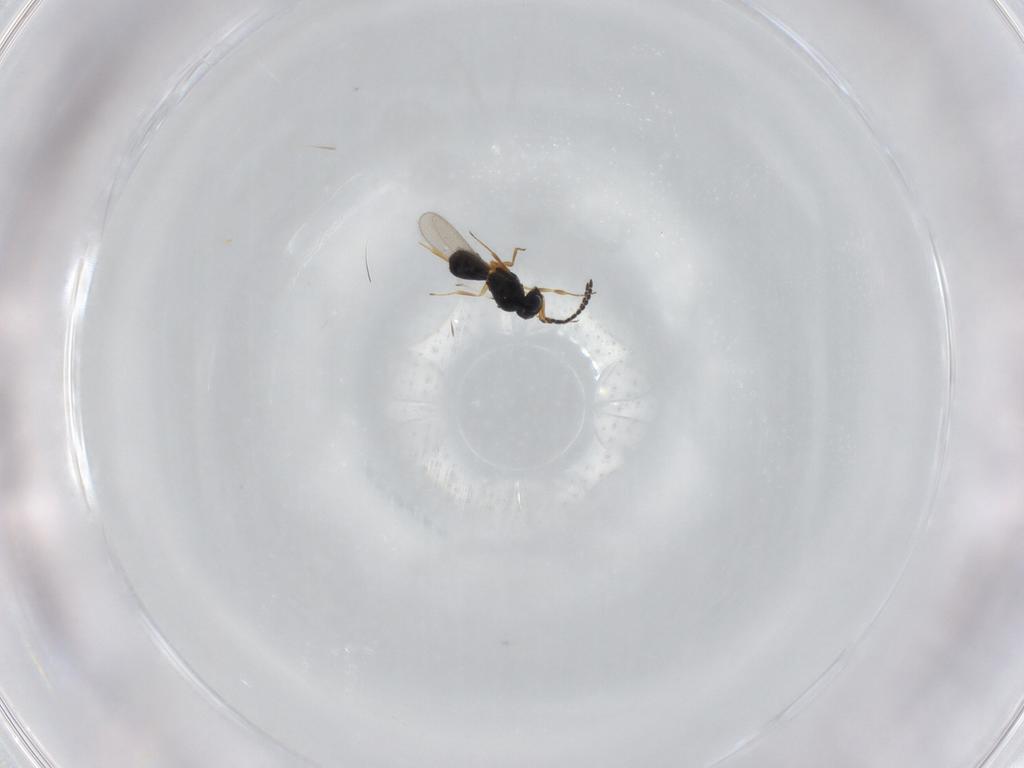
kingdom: Animalia
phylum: Arthropoda
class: Insecta
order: Hymenoptera
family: Scelionidae
